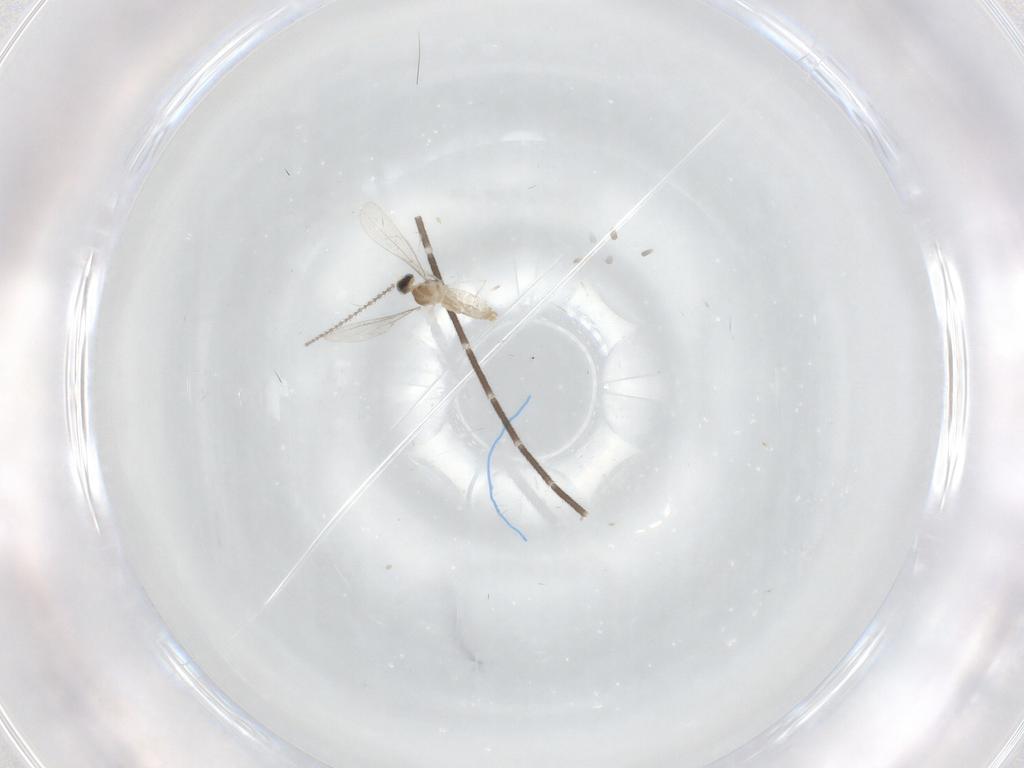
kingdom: Animalia
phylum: Arthropoda
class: Insecta
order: Diptera
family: Cecidomyiidae
